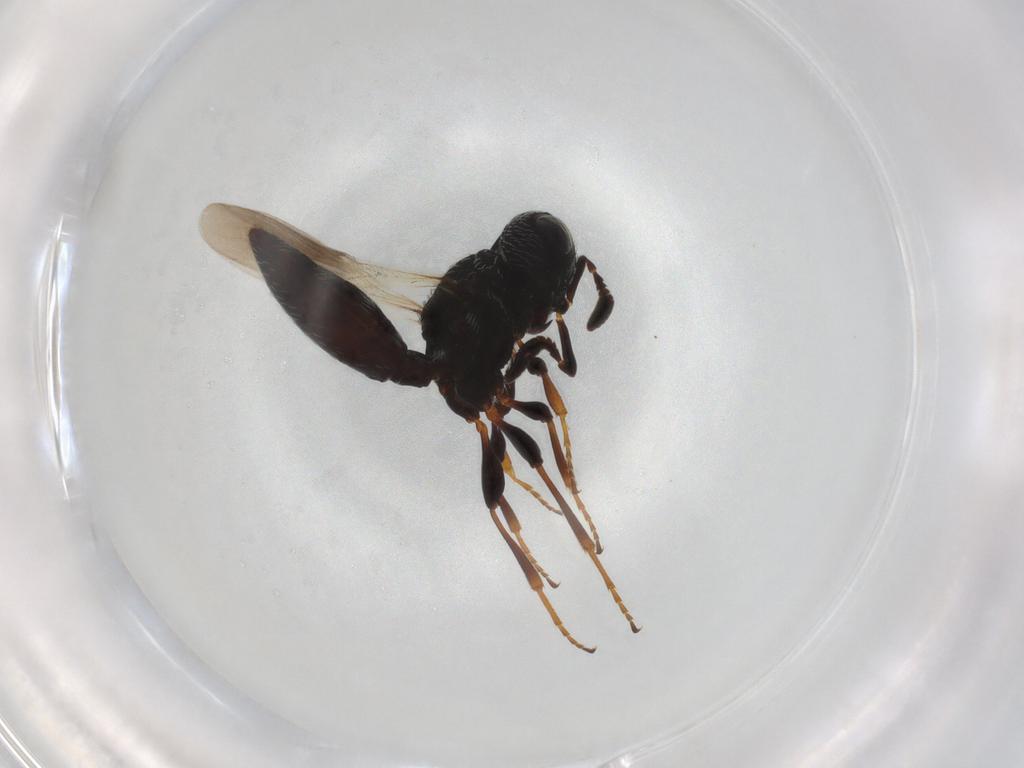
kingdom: Animalia
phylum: Arthropoda
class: Insecta
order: Hymenoptera
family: Scelionidae
